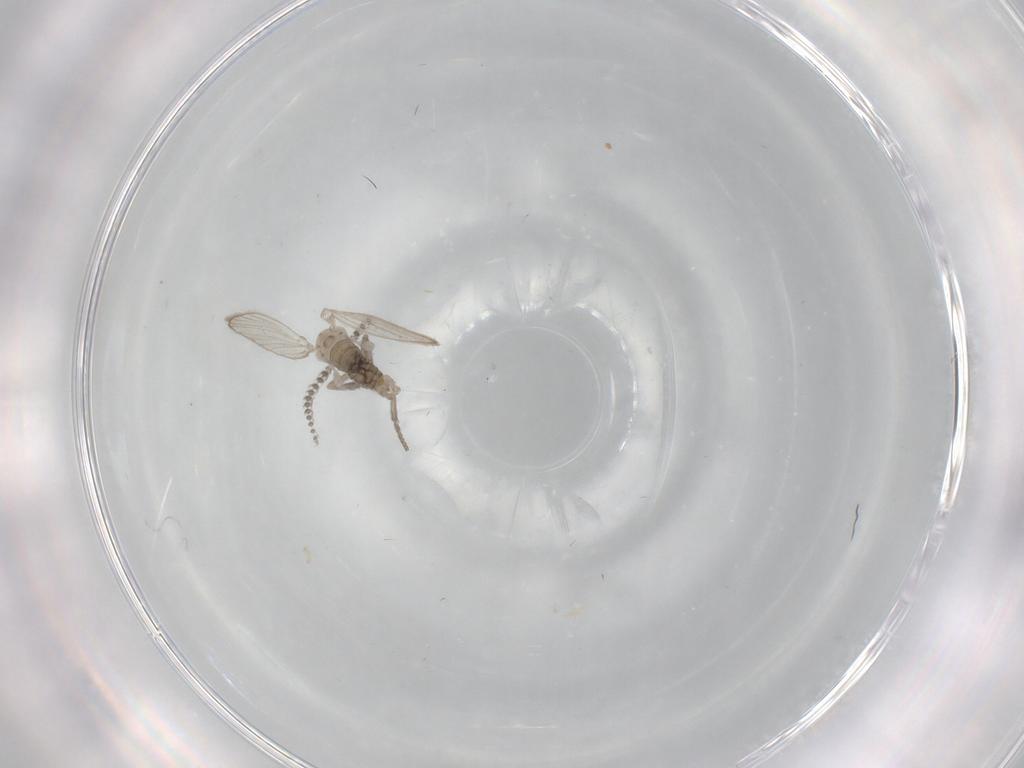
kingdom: Animalia
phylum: Arthropoda
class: Insecta
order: Diptera
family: Psychodidae
